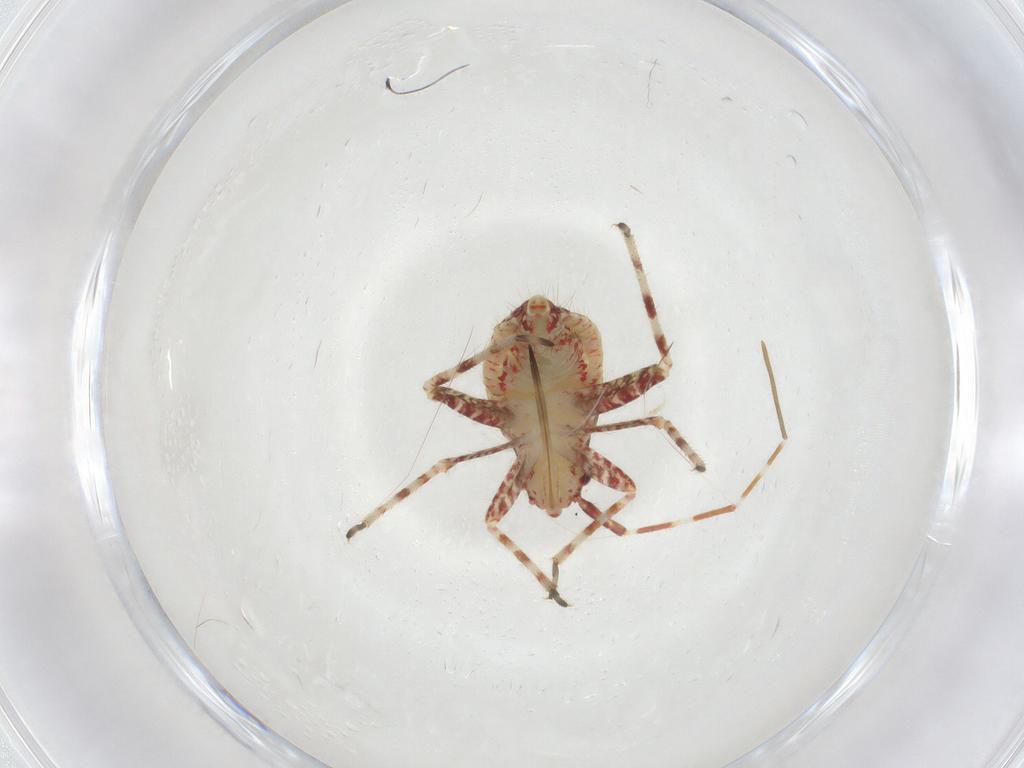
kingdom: Animalia
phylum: Arthropoda
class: Insecta
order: Hemiptera
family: Miridae
